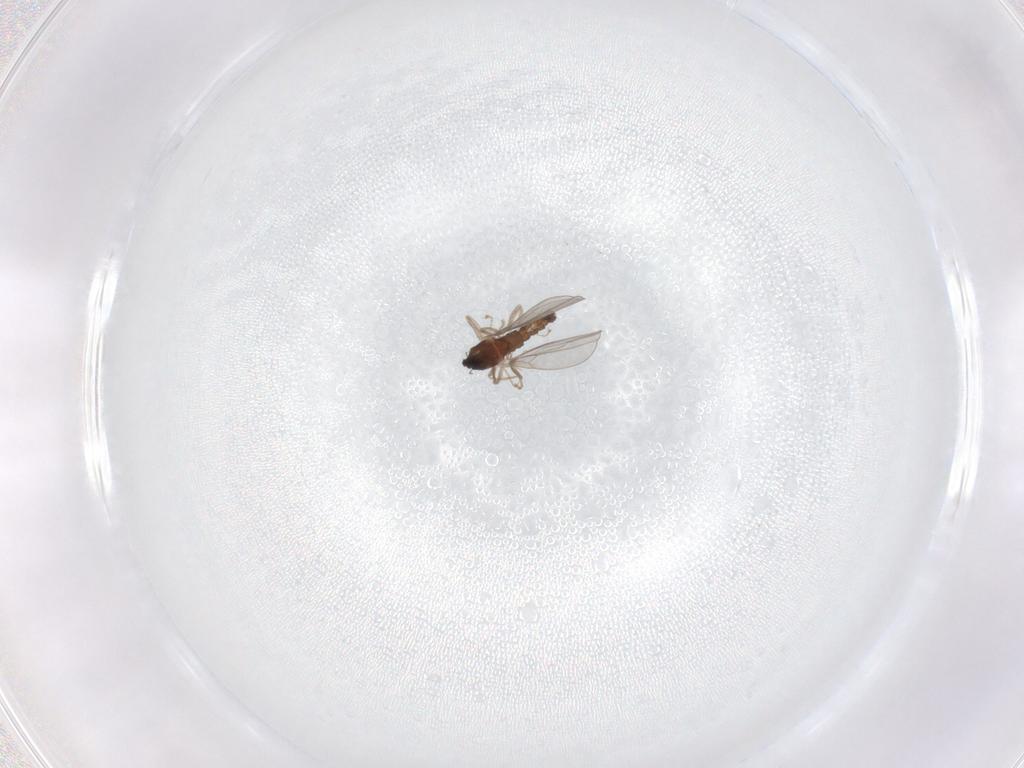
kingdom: Animalia
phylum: Arthropoda
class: Insecta
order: Diptera
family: Cecidomyiidae
